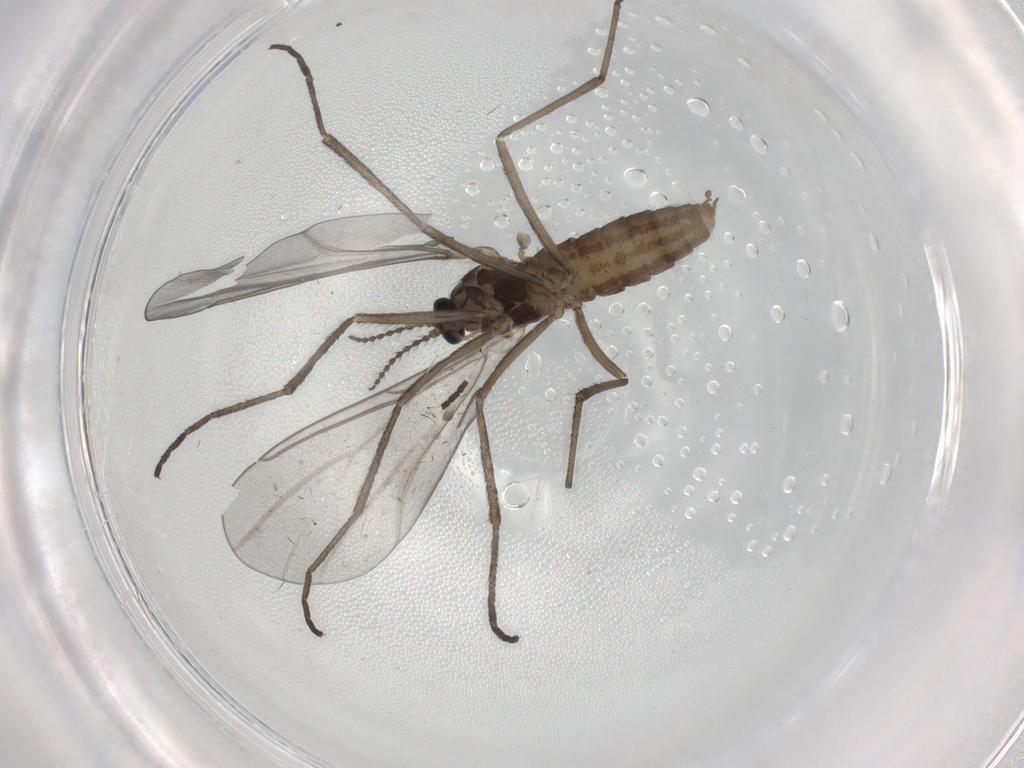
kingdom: Animalia
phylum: Arthropoda
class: Insecta
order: Diptera
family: Cecidomyiidae
